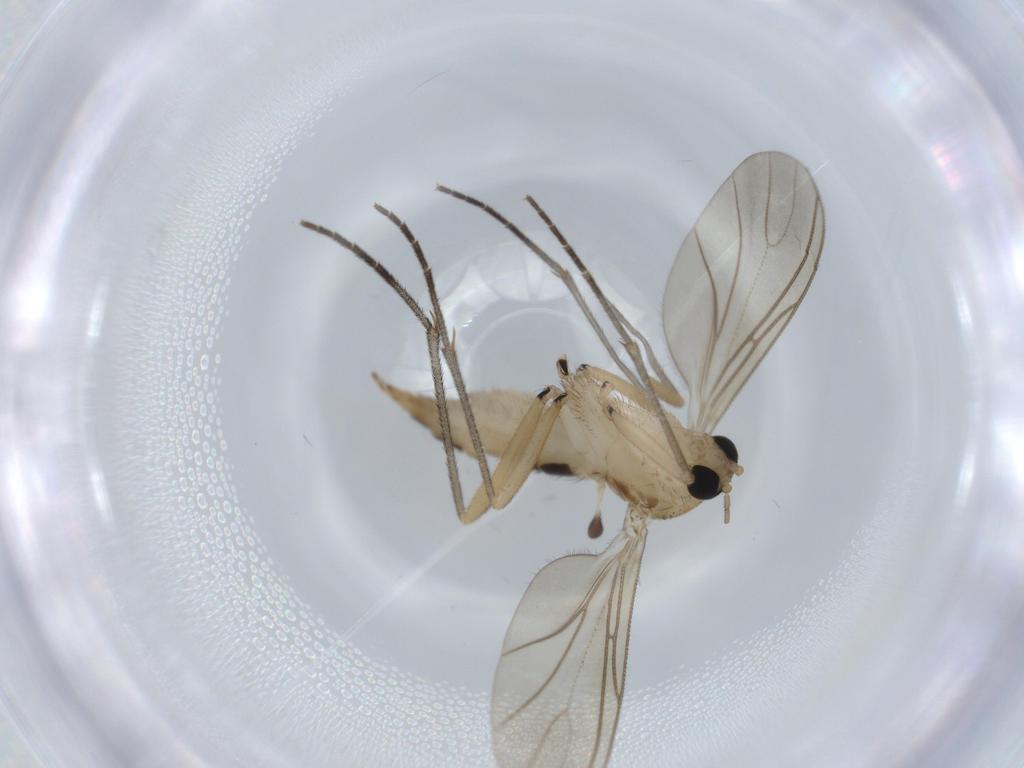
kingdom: Animalia
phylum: Arthropoda
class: Insecta
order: Diptera
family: Sciaridae
